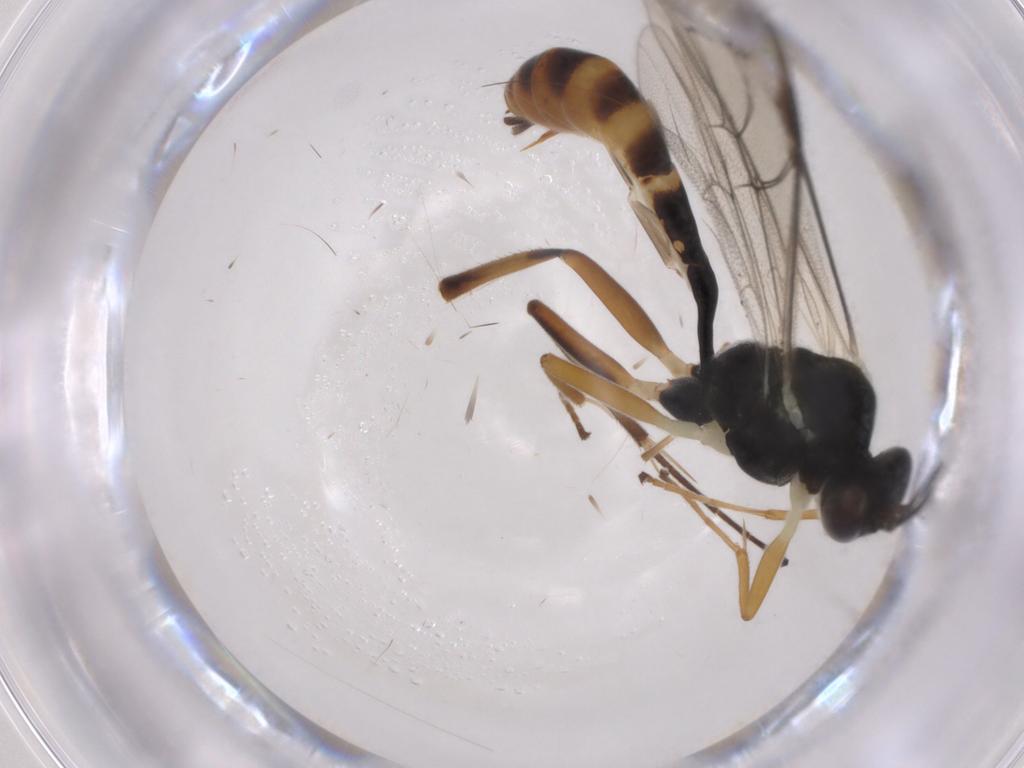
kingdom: Animalia
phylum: Arthropoda
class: Insecta
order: Hymenoptera
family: Ichneumonidae
